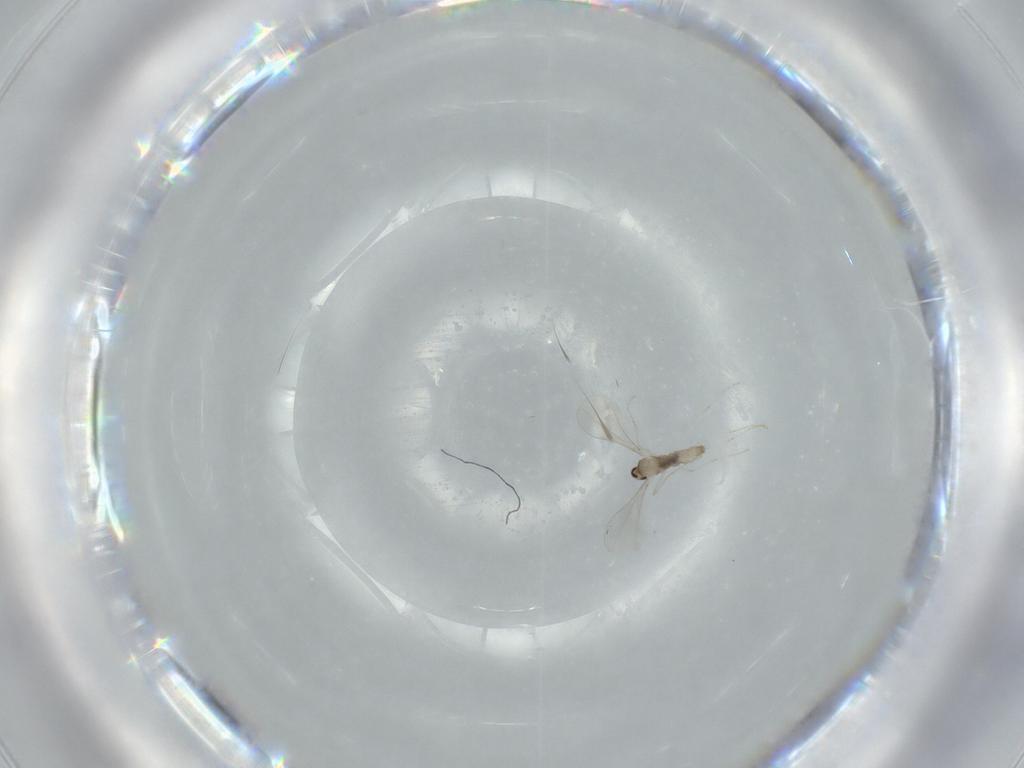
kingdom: Animalia
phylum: Arthropoda
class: Insecta
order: Diptera
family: Cecidomyiidae
